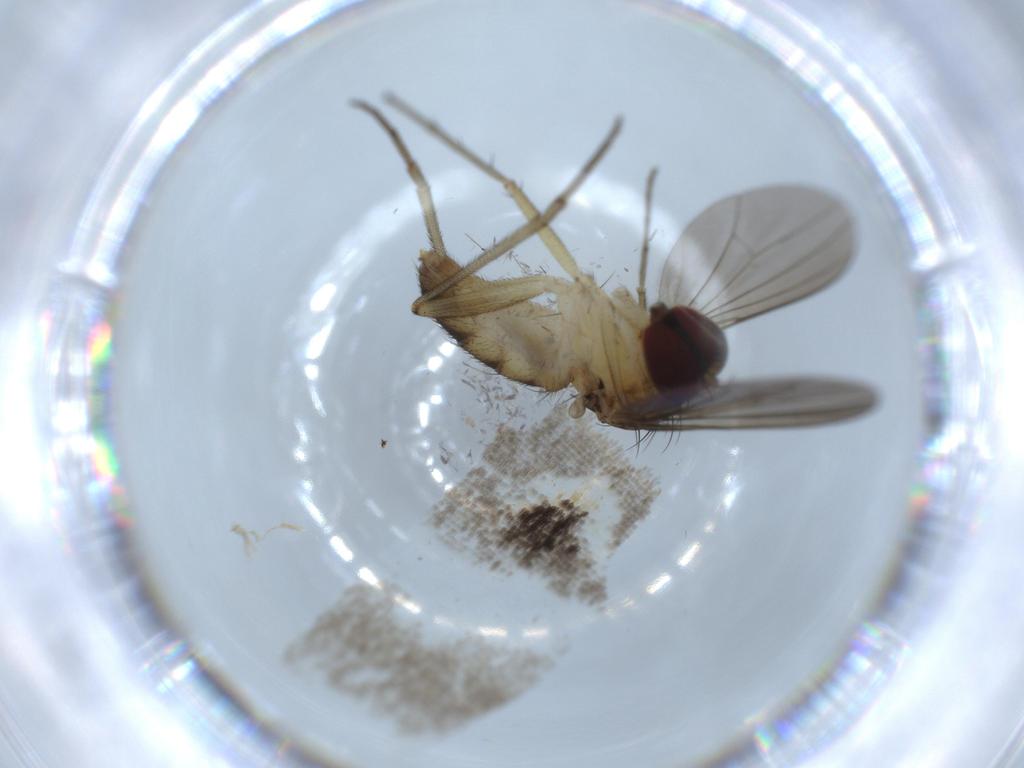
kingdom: Animalia
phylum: Arthropoda
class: Insecta
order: Diptera
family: Dolichopodidae
